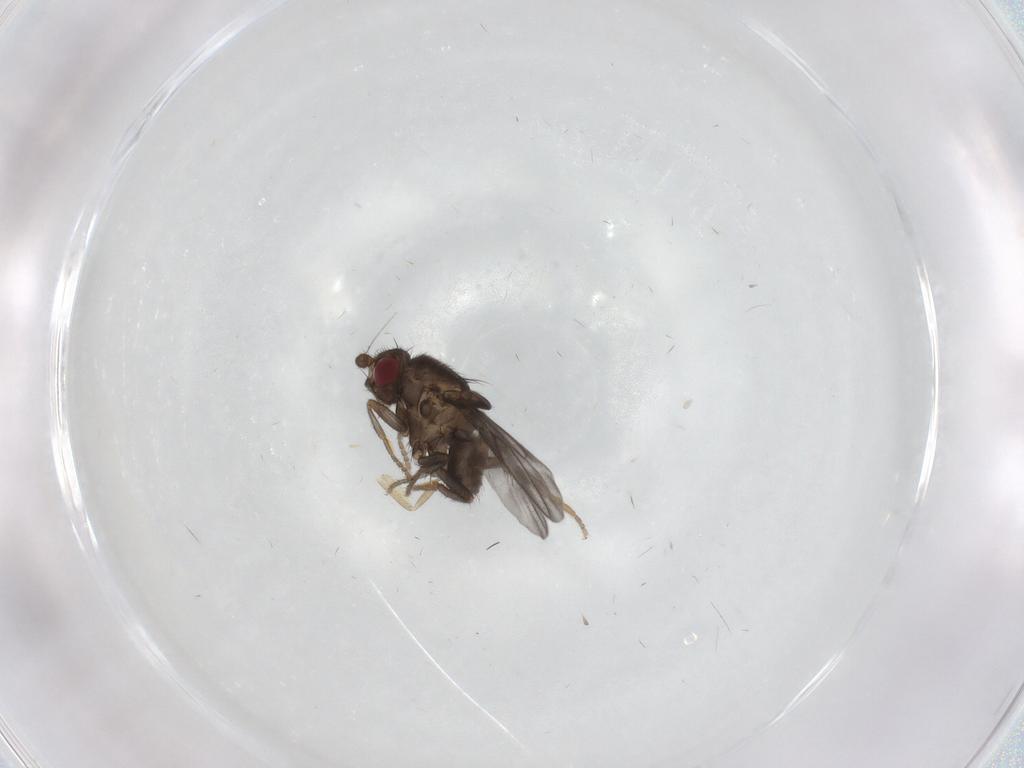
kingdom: Animalia
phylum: Arthropoda
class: Insecta
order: Diptera
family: Sphaeroceridae
